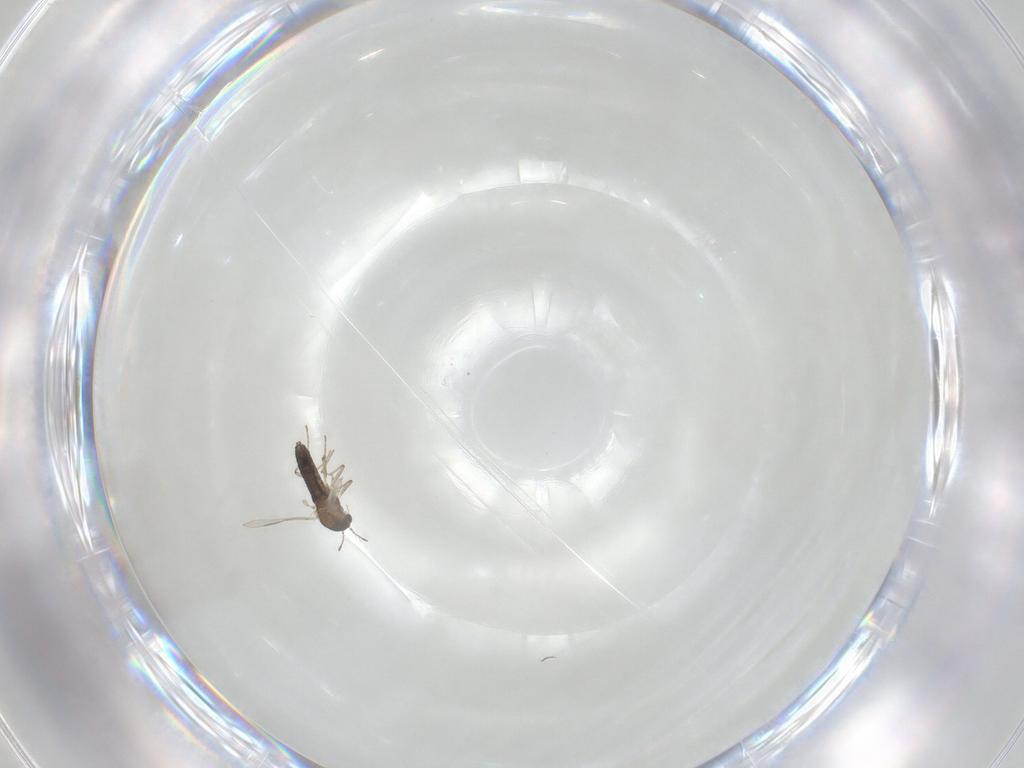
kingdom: Animalia
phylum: Arthropoda
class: Insecta
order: Diptera
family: Chironomidae
